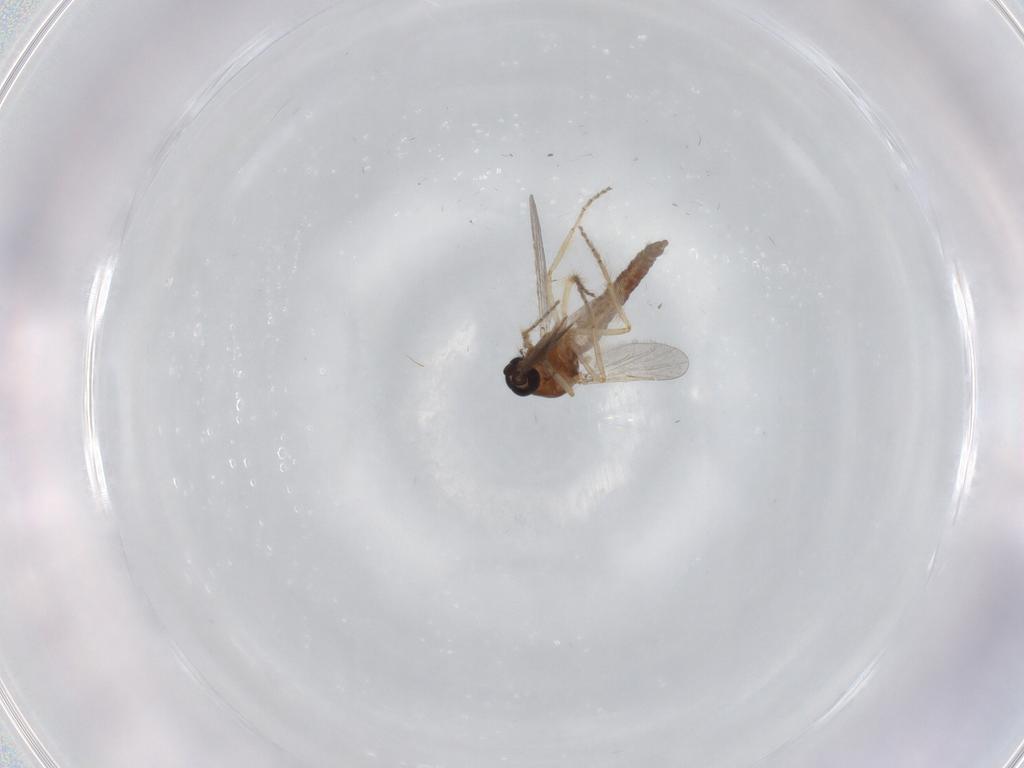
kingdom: Animalia
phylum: Arthropoda
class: Insecta
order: Diptera
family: Ceratopogonidae
